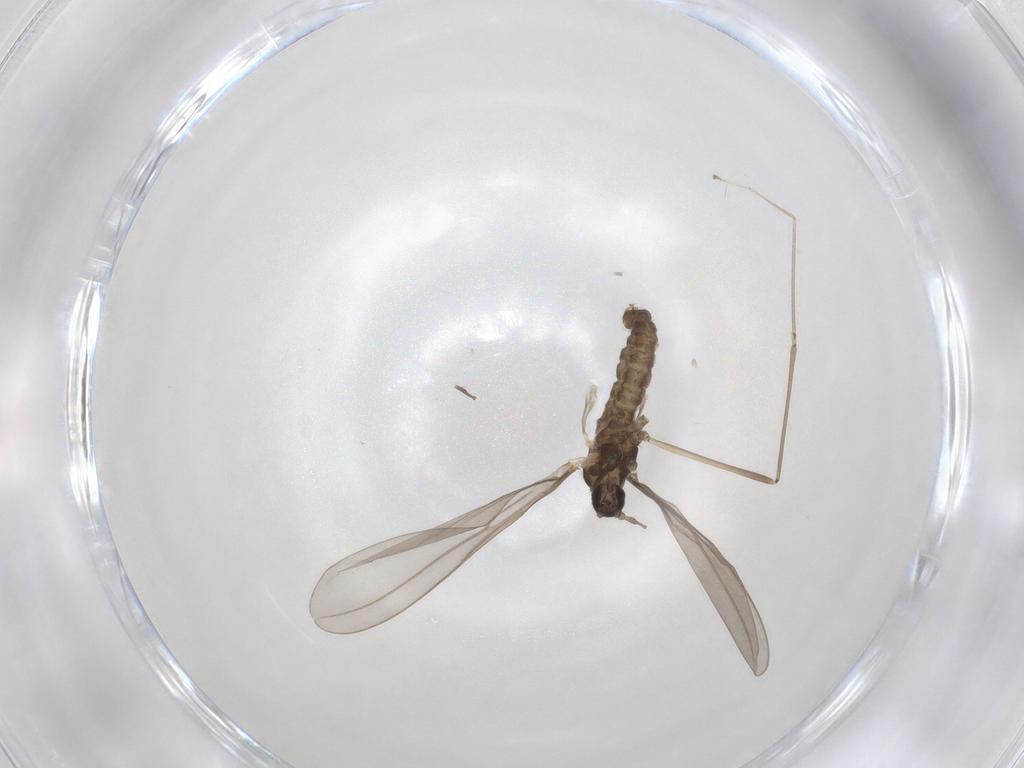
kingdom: Animalia
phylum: Arthropoda
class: Insecta
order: Diptera
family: Cecidomyiidae
